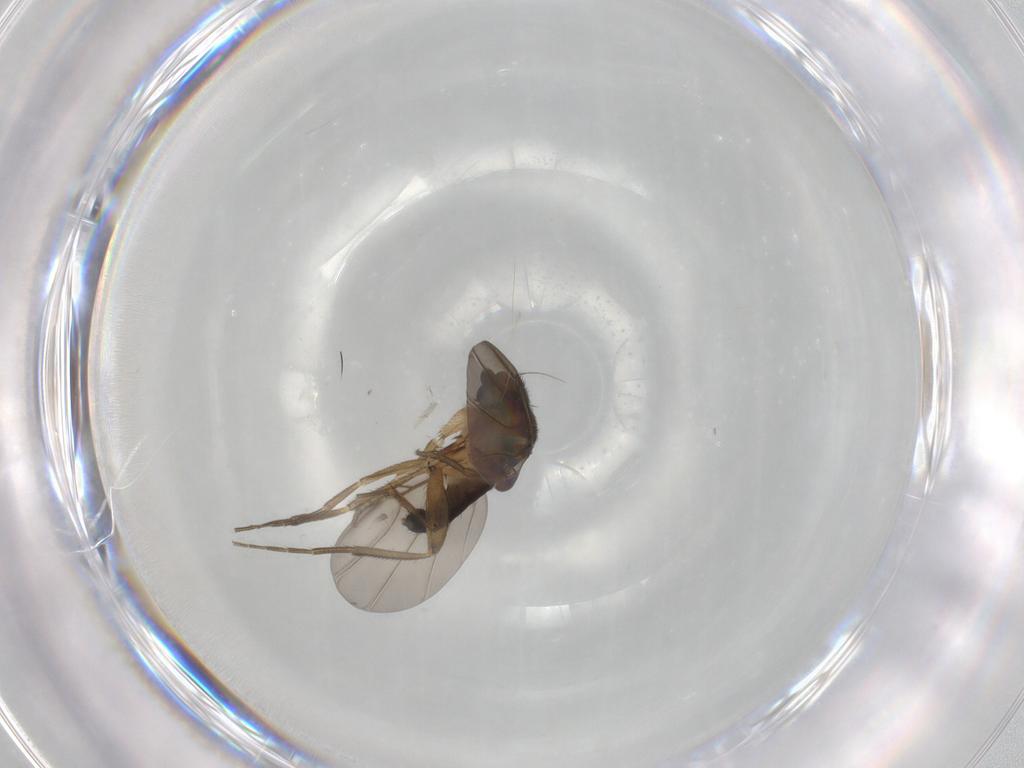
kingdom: Animalia
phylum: Arthropoda
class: Insecta
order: Diptera
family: Phoridae
